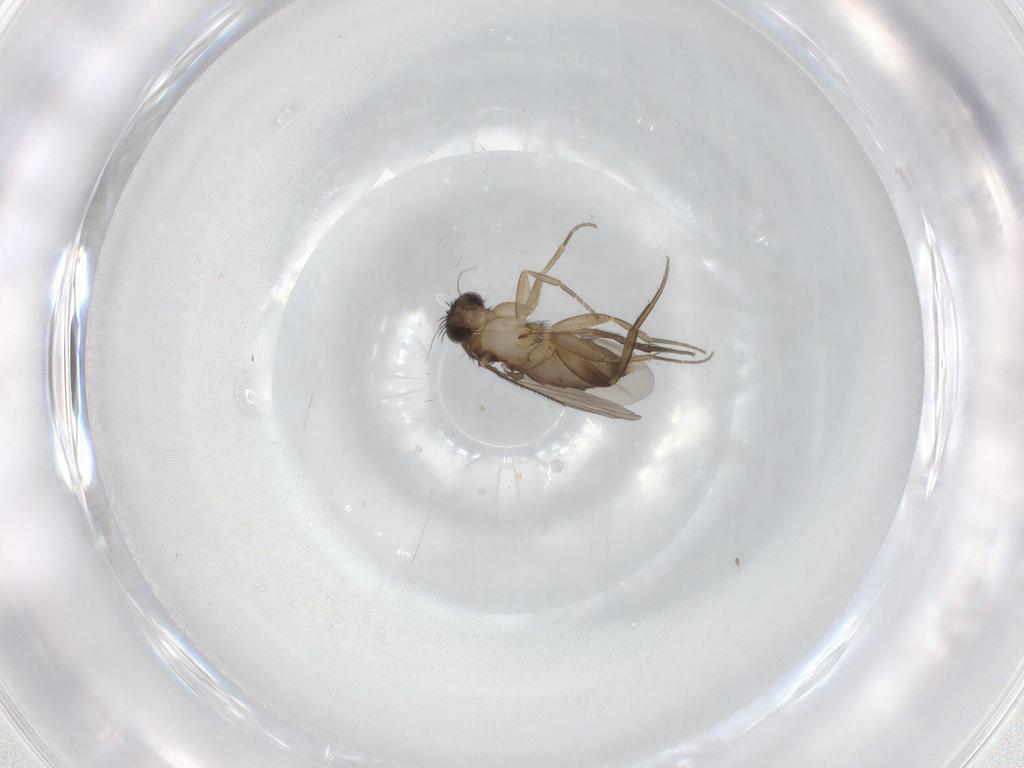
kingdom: Animalia
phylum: Arthropoda
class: Insecta
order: Diptera
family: Phoridae
